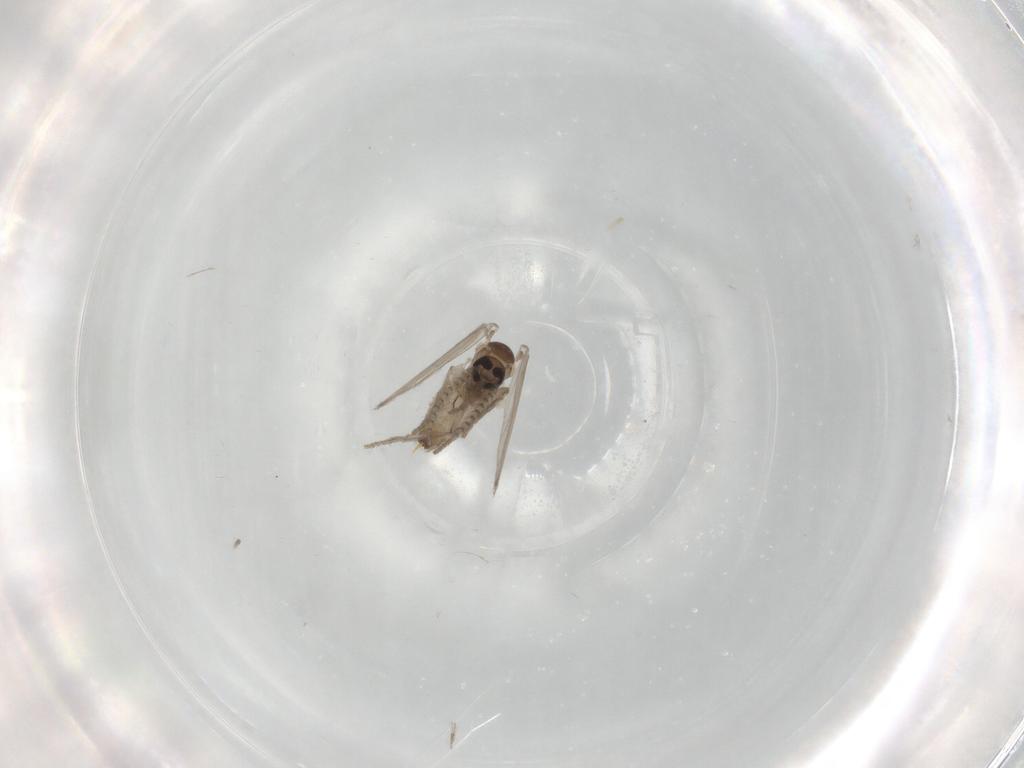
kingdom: Animalia
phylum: Arthropoda
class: Insecta
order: Diptera
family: Psychodidae
